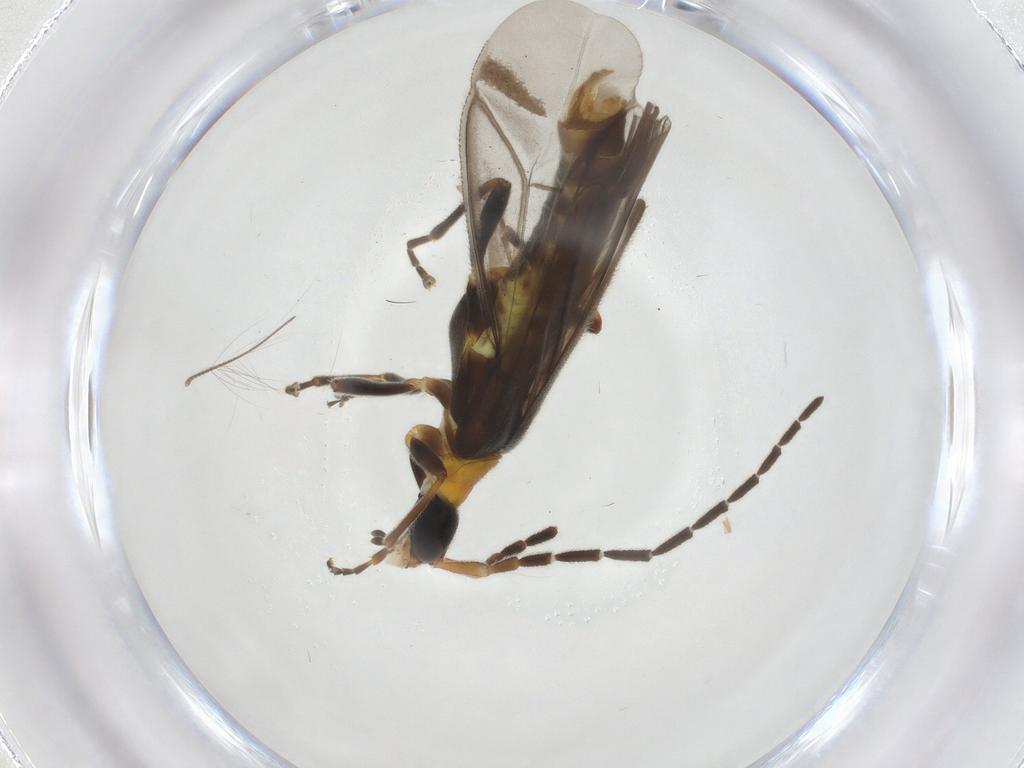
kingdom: Animalia
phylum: Arthropoda
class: Insecta
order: Coleoptera
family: Cantharidae
